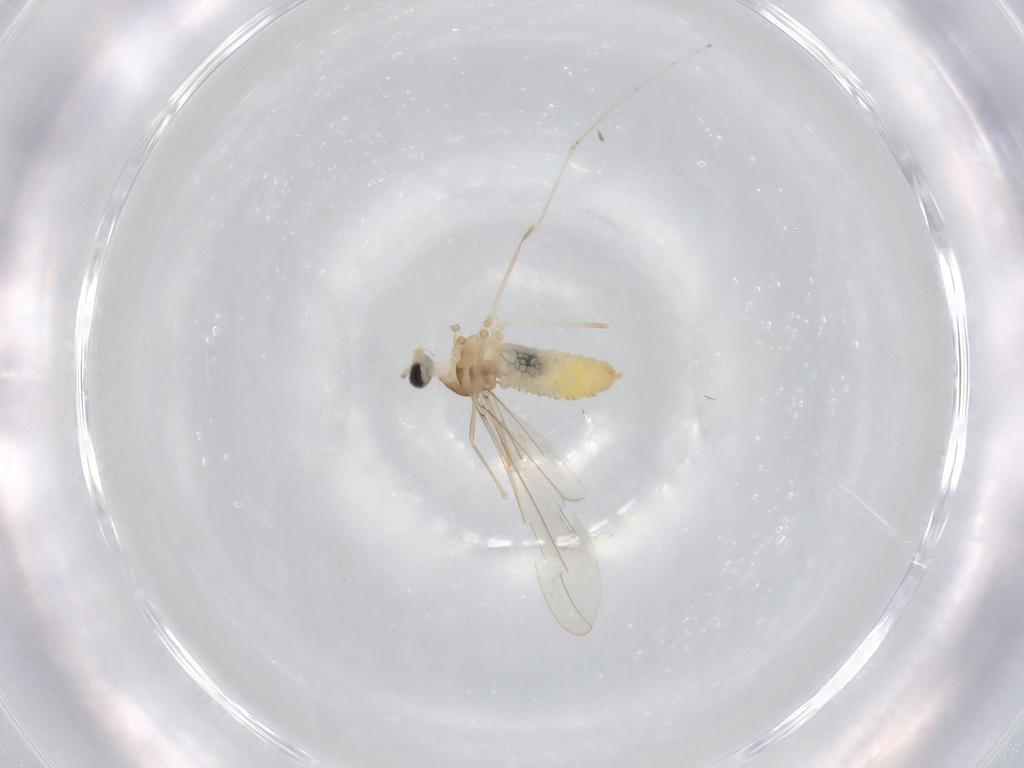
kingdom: Animalia
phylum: Arthropoda
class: Insecta
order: Diptera
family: Cecidomyiidae
